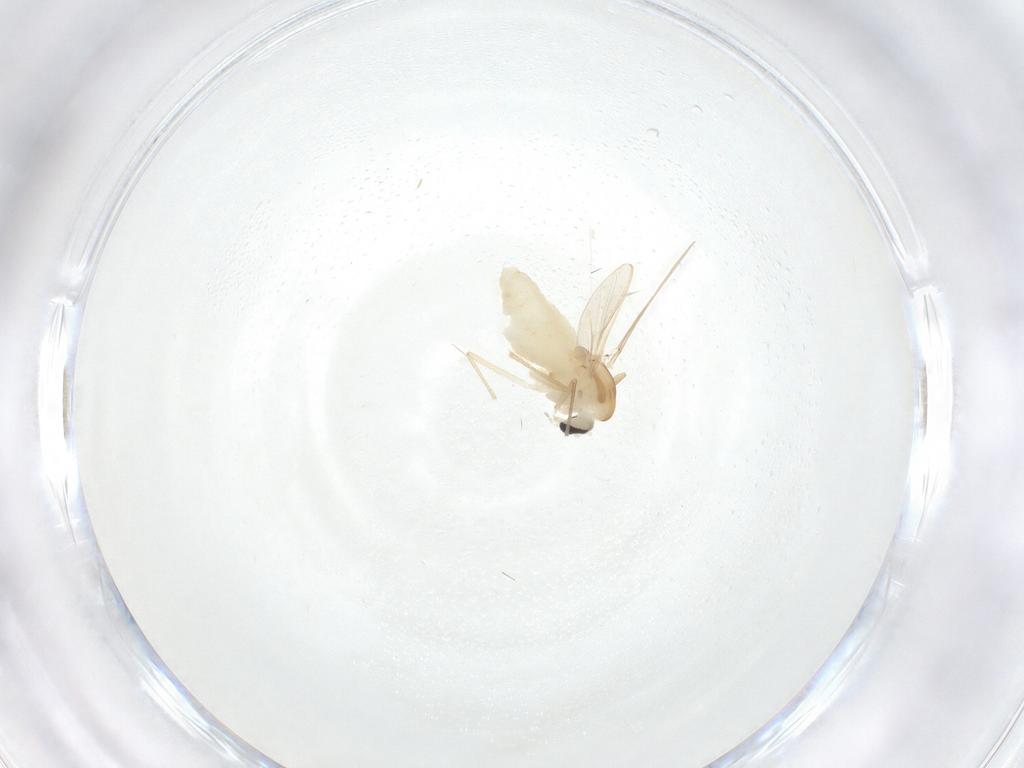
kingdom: Animalia
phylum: Arthropoda
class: Insecta
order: Diptera
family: Chironomidae
